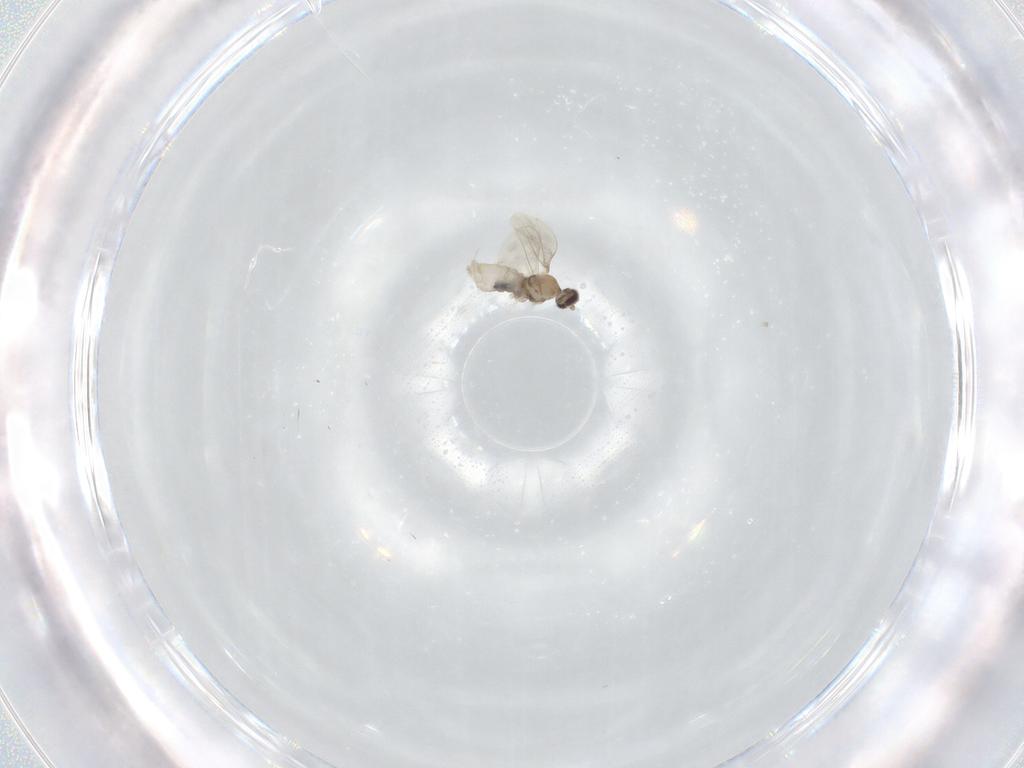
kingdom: Animalia
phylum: Arthropoda
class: Insecta
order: Diptera
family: Cecidomyiidae
